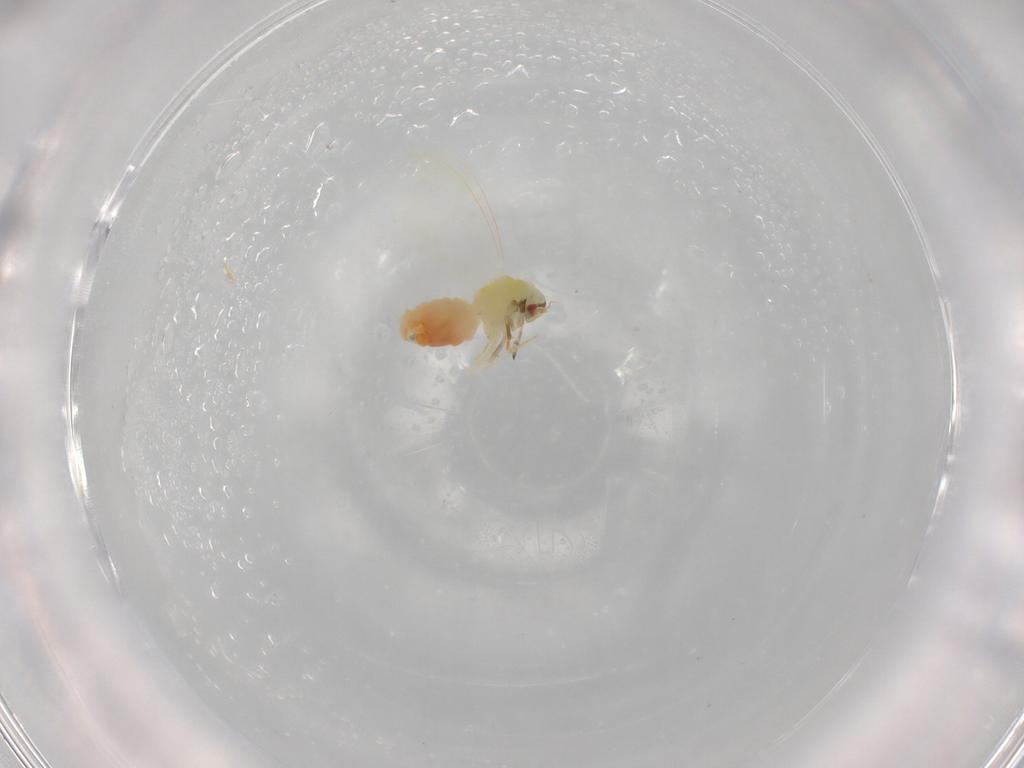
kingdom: Animalia
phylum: Arthropoda
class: Insecta
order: Hemiptera
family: Aleyrodidae
